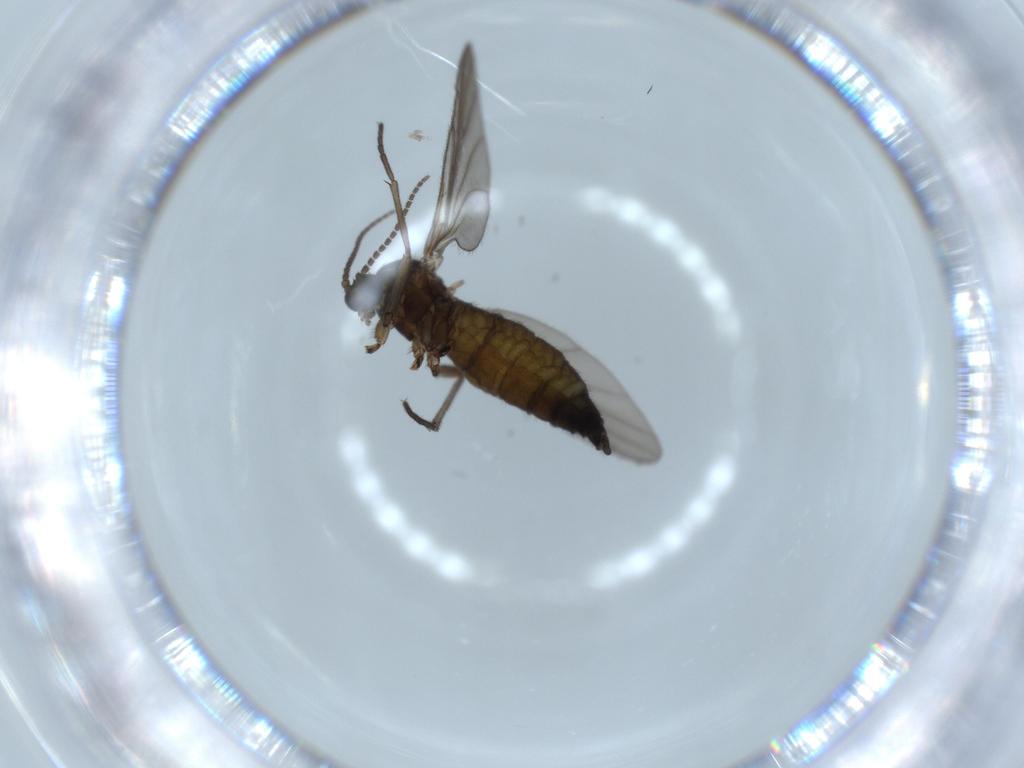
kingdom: Animalia
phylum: Arthropoda
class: Insecta
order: Diptera
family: Sciaridae
